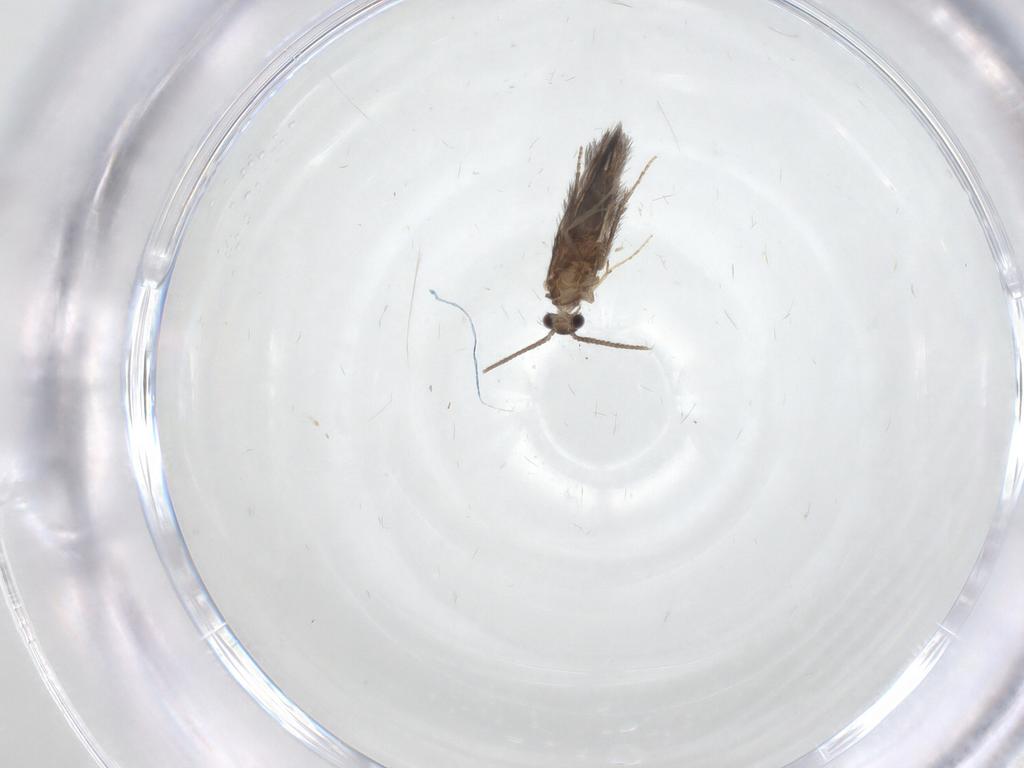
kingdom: Animalia
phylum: Arthropoda
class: Insecta
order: Trichoptera
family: Hydroptilidae
